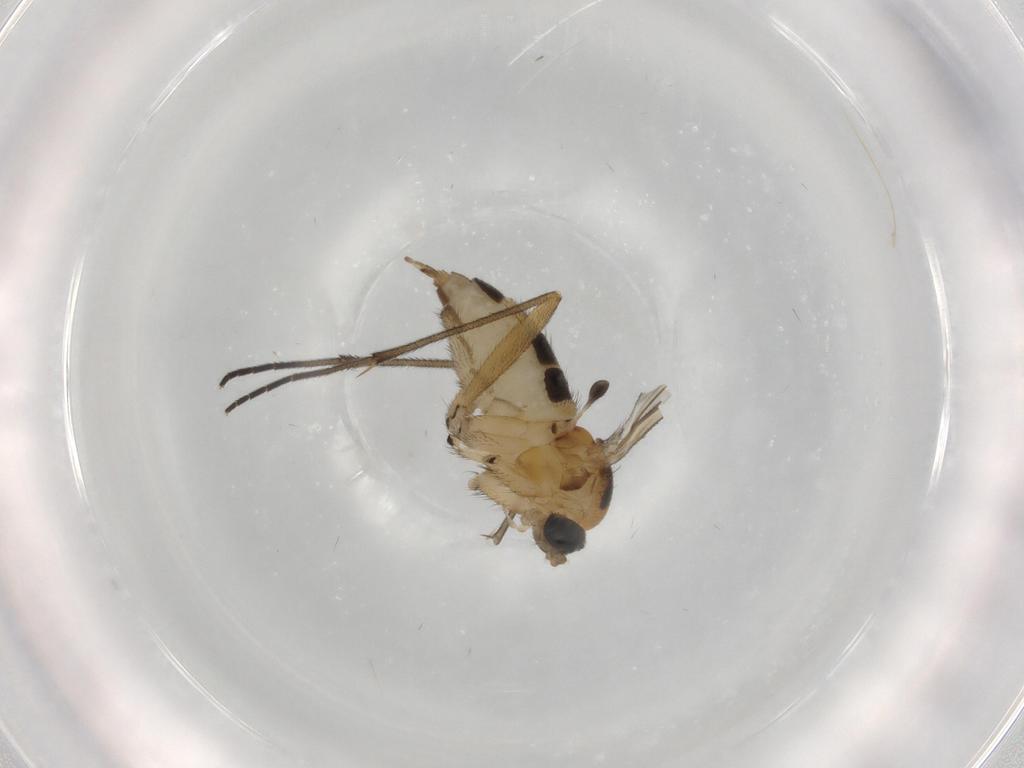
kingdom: Animalia
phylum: Arthropoda
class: Insecta
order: Diptera
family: Sciaridae
